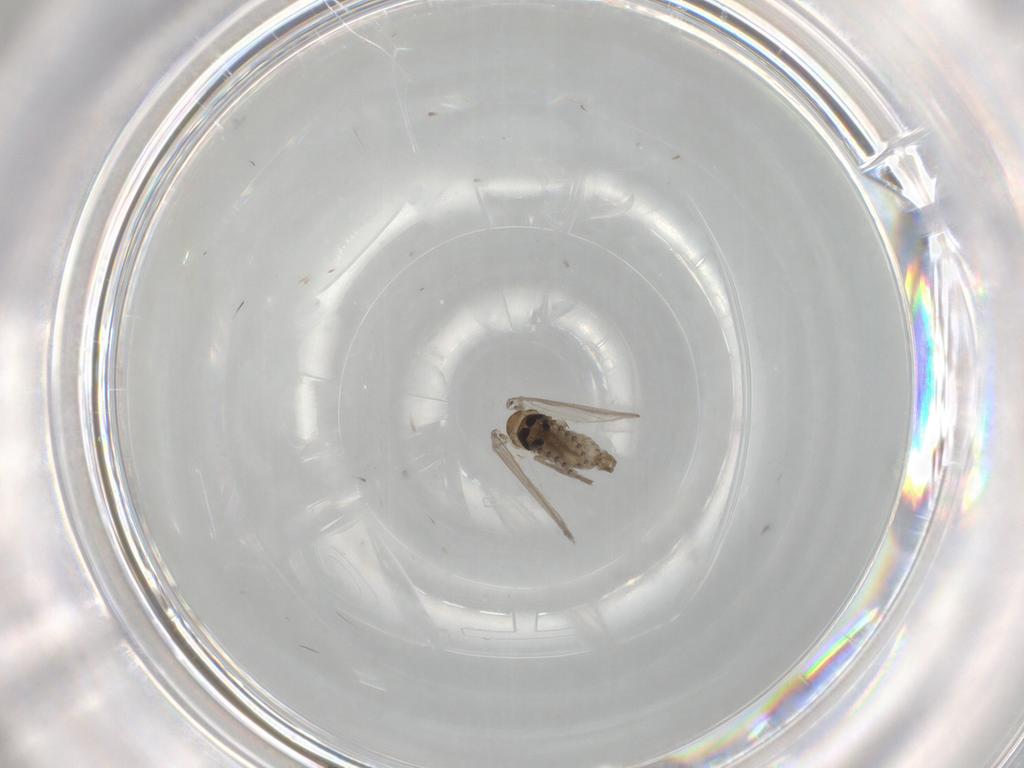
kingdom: Animalia
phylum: Arthropoda
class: Insecta
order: Diptera
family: Psychodidae
